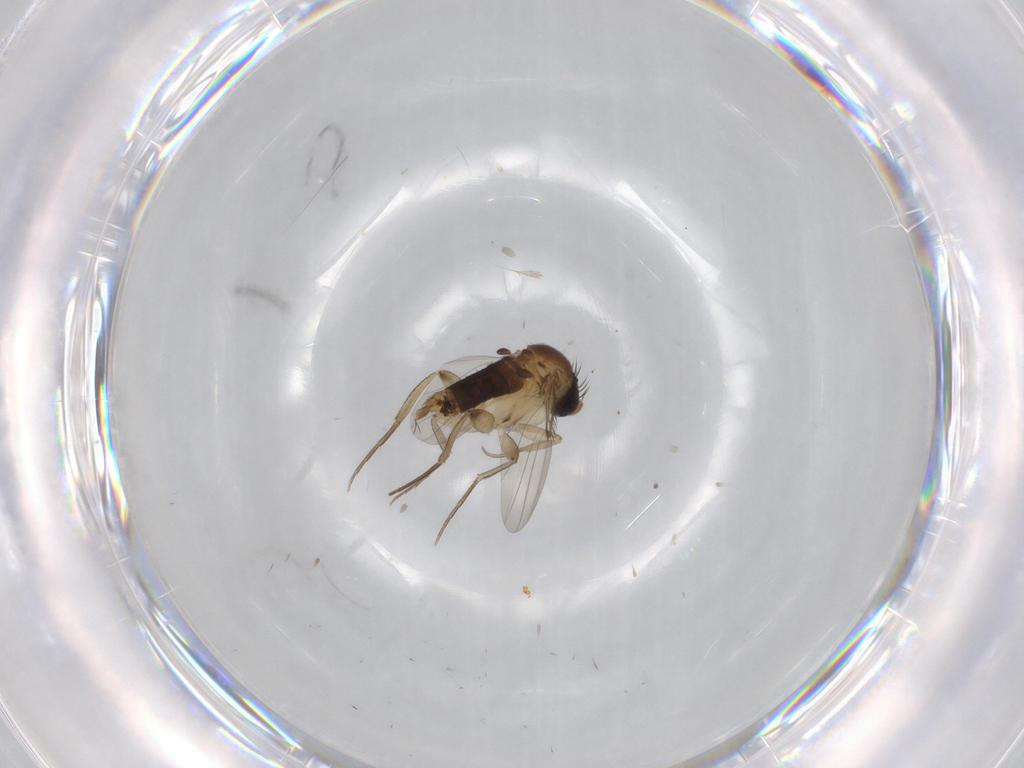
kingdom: Animalia
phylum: Arthropoda
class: Insecta
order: Diptera
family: Phoridae
